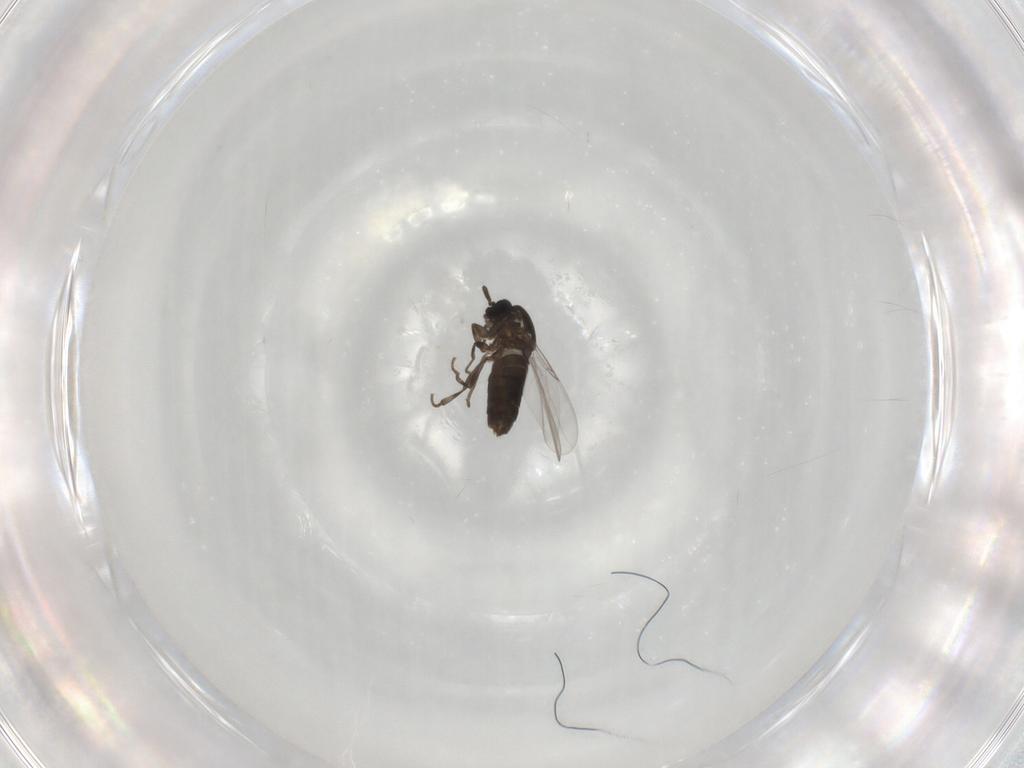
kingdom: Animalia
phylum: Arthropoda
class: Insecta
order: Diptera
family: Scatopsidae
